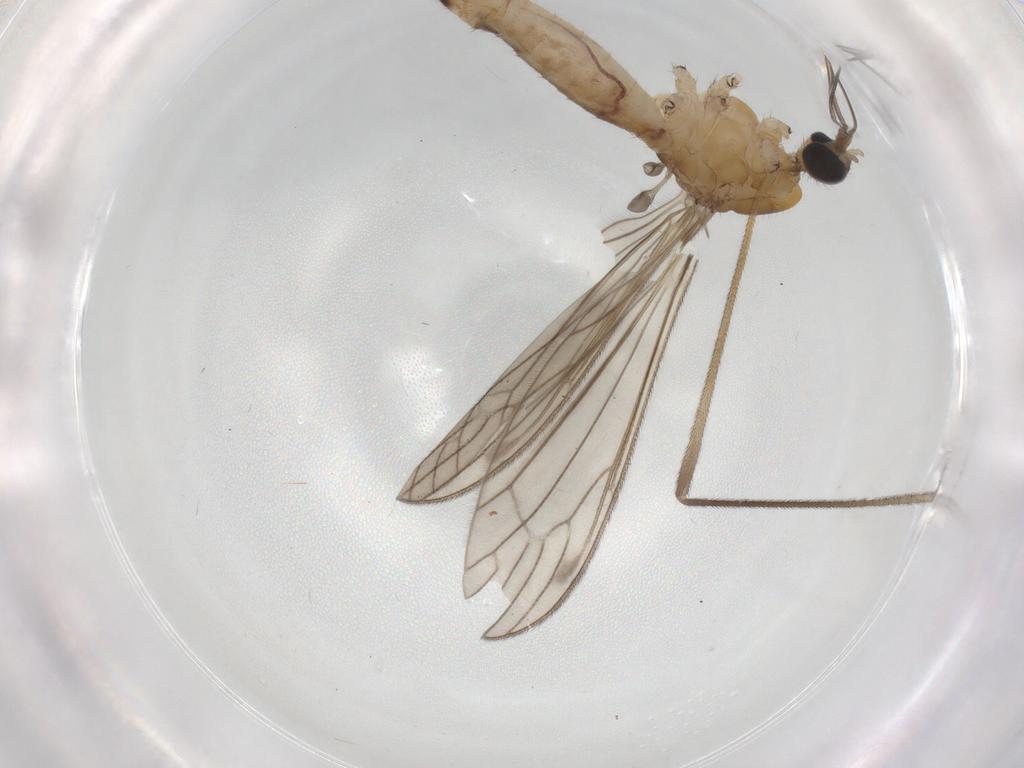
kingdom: Animalia
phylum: Arthropoda
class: Insecta
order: Diptera
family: Limoniidae
